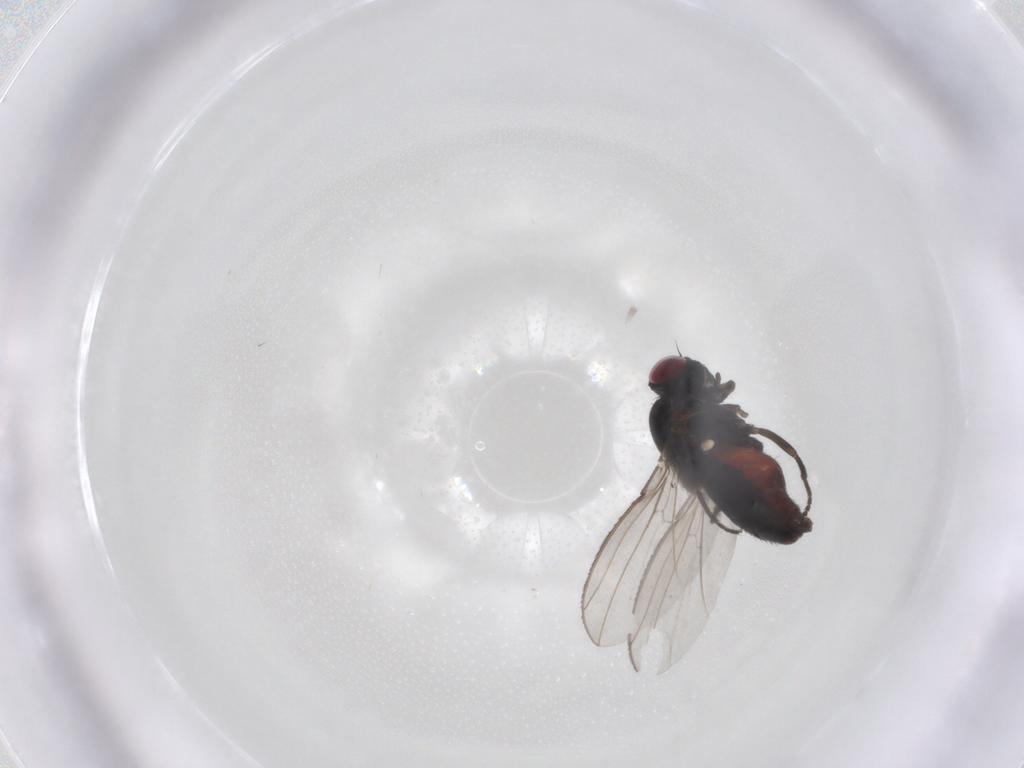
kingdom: Animalia
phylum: Arthropoda
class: Insecta
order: Diptera
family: Carnidae
